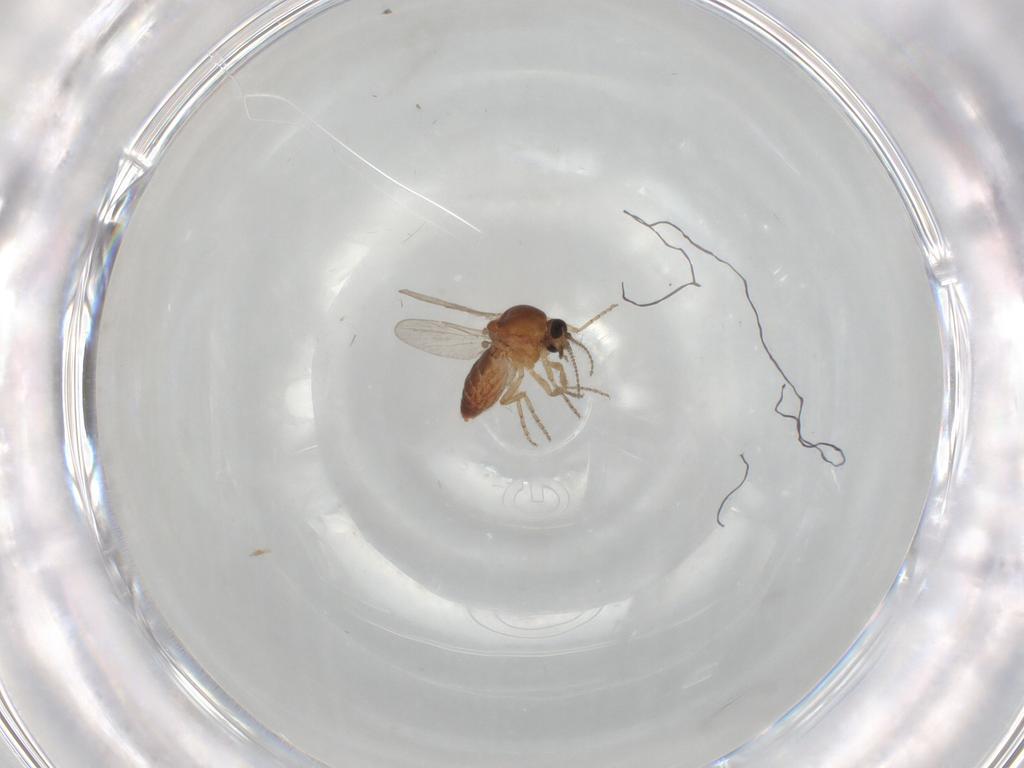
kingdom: Animalia
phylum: Arthropoda
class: Insecta
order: Diptera
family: Ceratopogonidae
